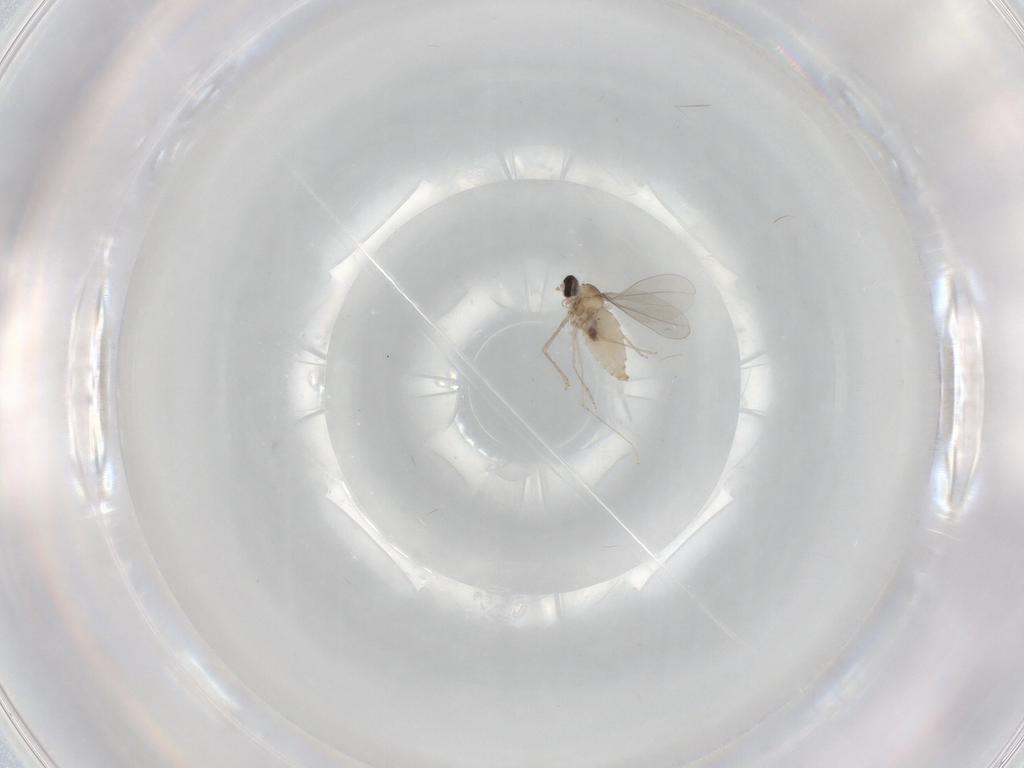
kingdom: Animalia
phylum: Arthropoda
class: Insecta
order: Diptera
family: Cecidomyiidae
